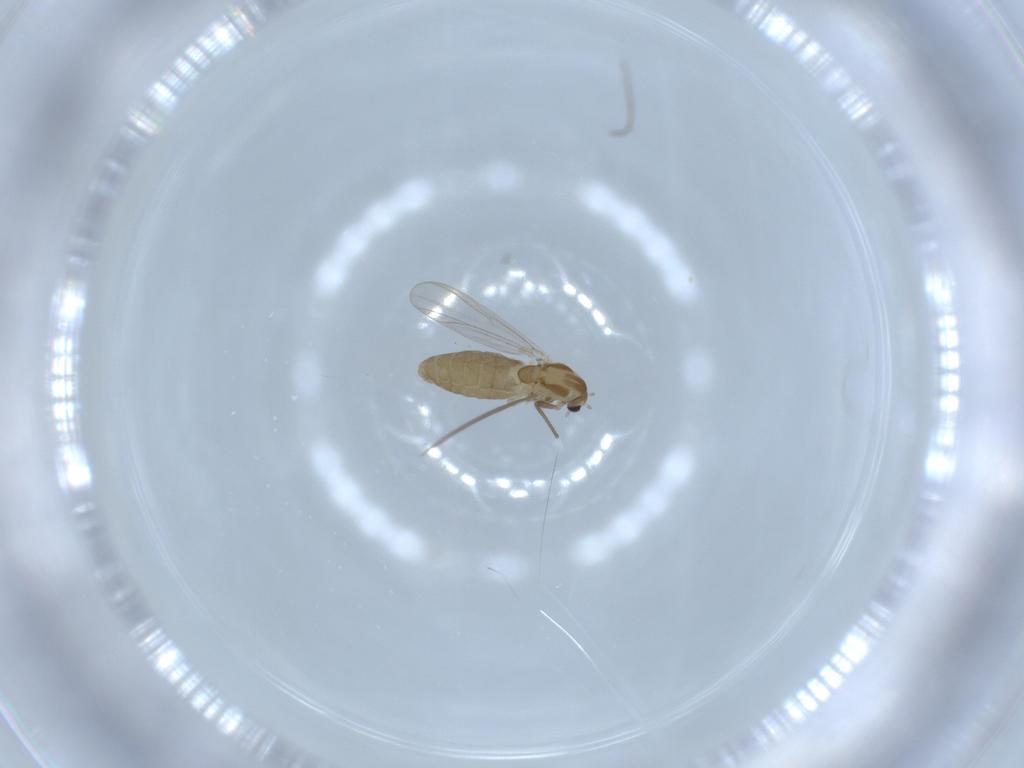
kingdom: Animalia
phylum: Arthropoda
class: Insecta
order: Diptera
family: Chironomidae
